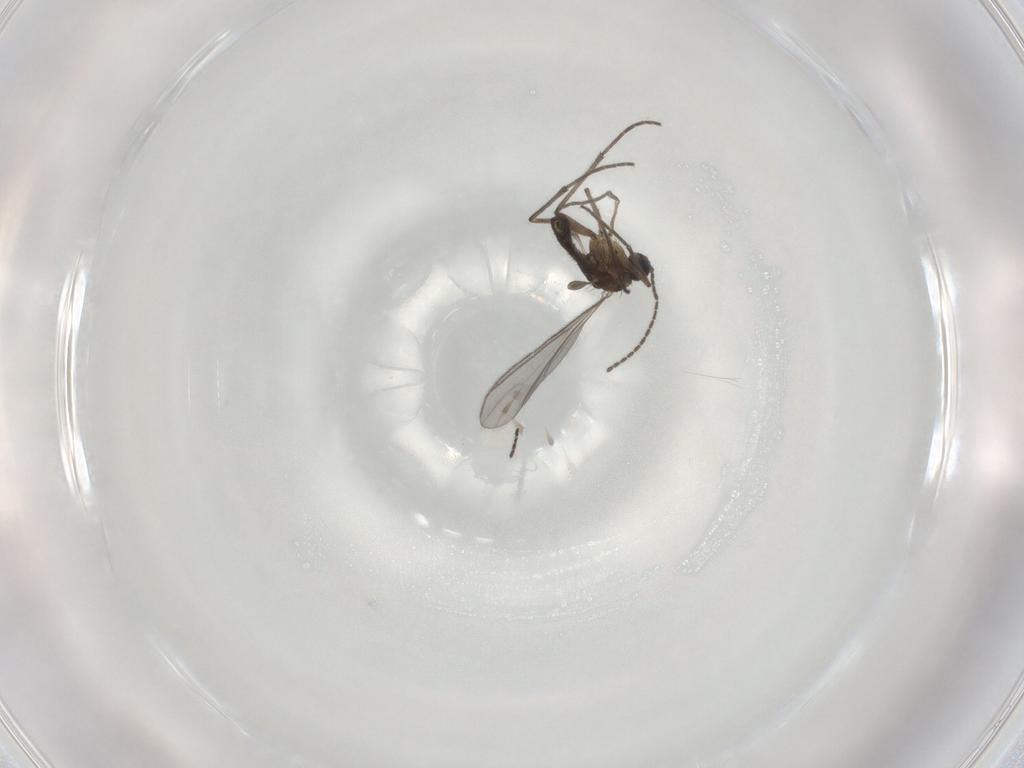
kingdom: Animalia
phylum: Arthropoda
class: Insecta
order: Diptera
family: Sciaridae
